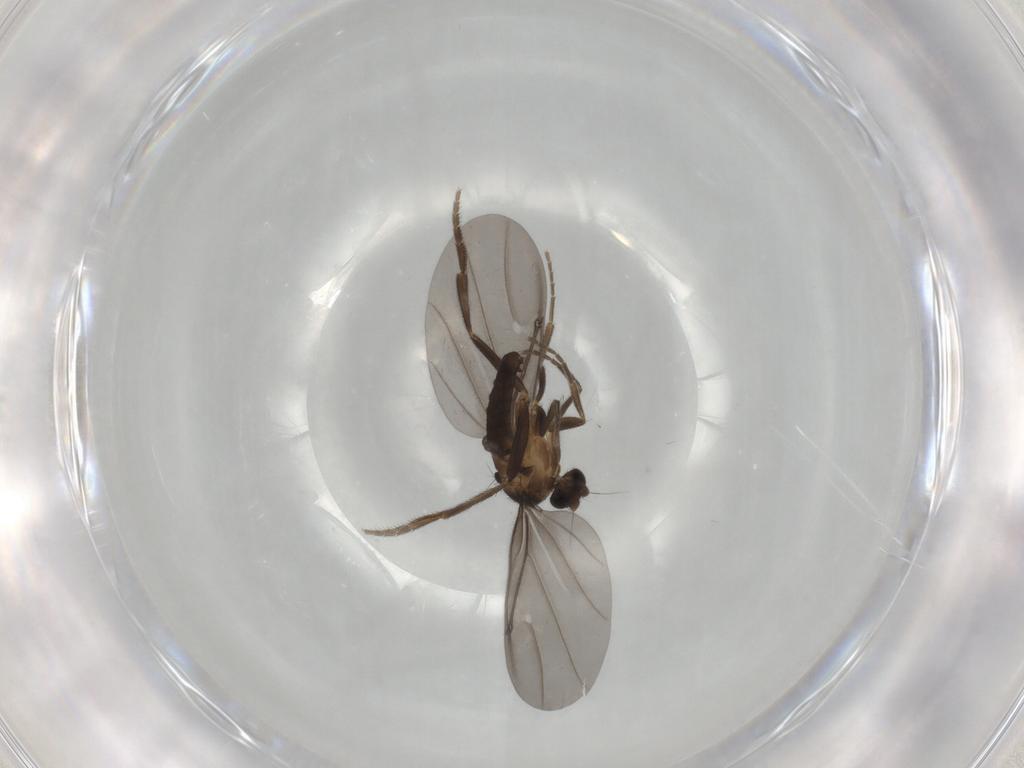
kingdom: Animalia
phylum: Arthropoda
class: Insecta
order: Diptera
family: Phoridae
